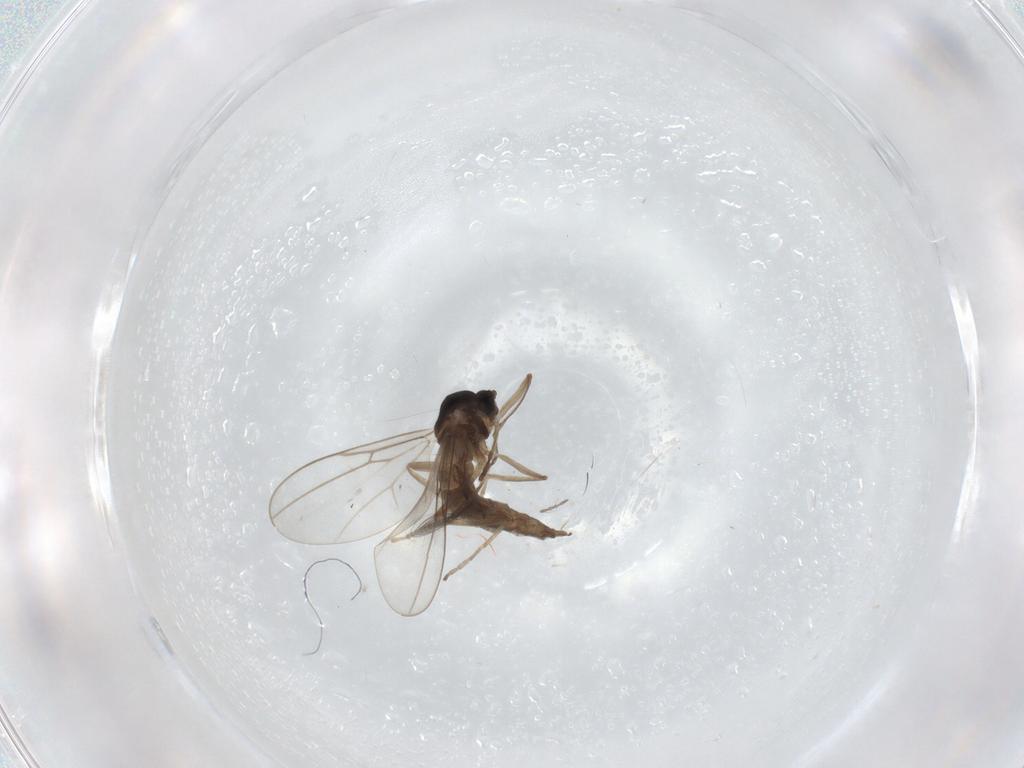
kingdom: Animalia
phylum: Arthropoda
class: Insecta
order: Diptera
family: Cecidomyiidae
